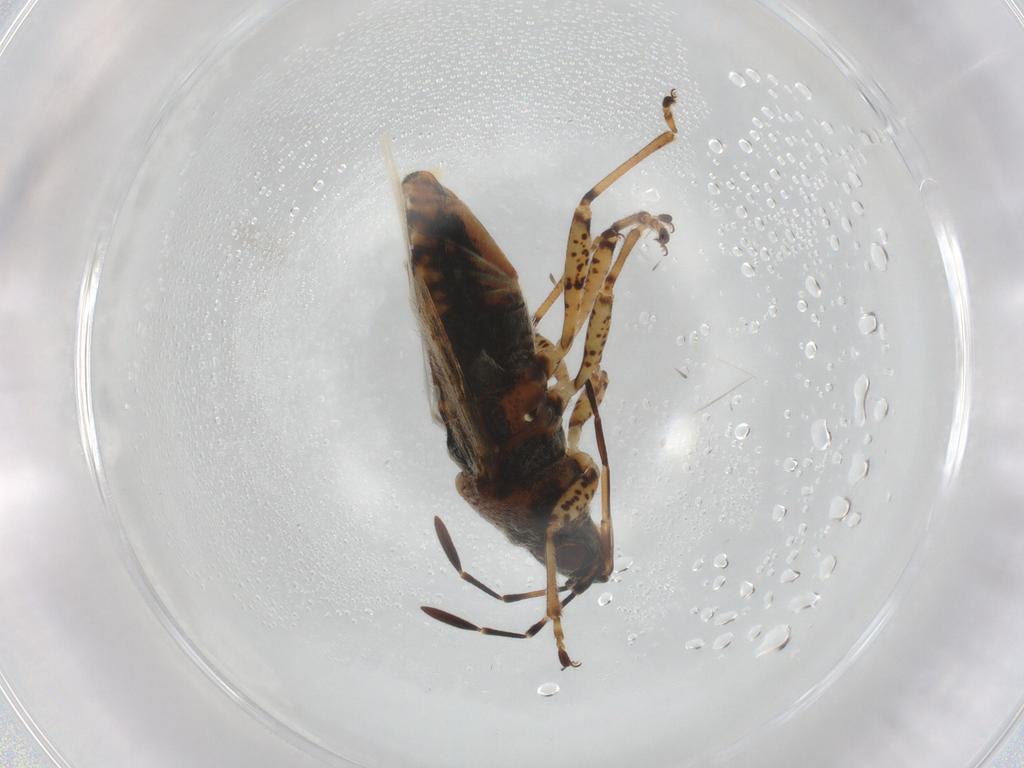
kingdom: Animalia
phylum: Arthropoda
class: Insecta
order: Hemiptera
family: Lygaeidae
